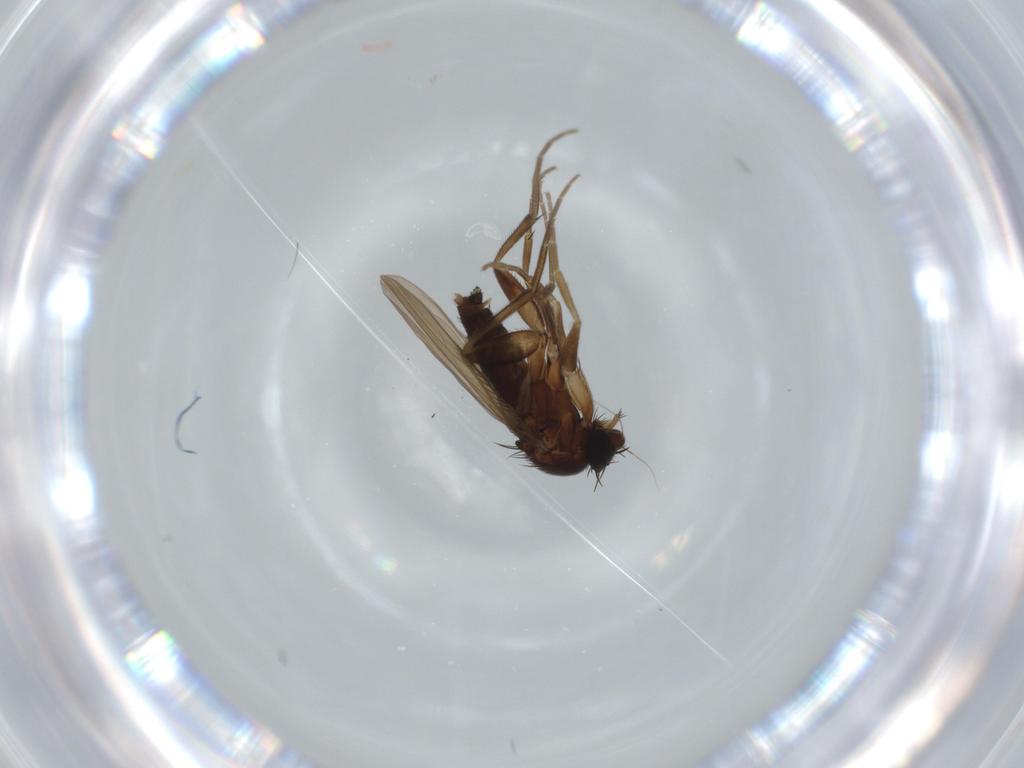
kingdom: Animalia
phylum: Arthropoda
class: Insecta
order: Diptera
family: Phoridae
